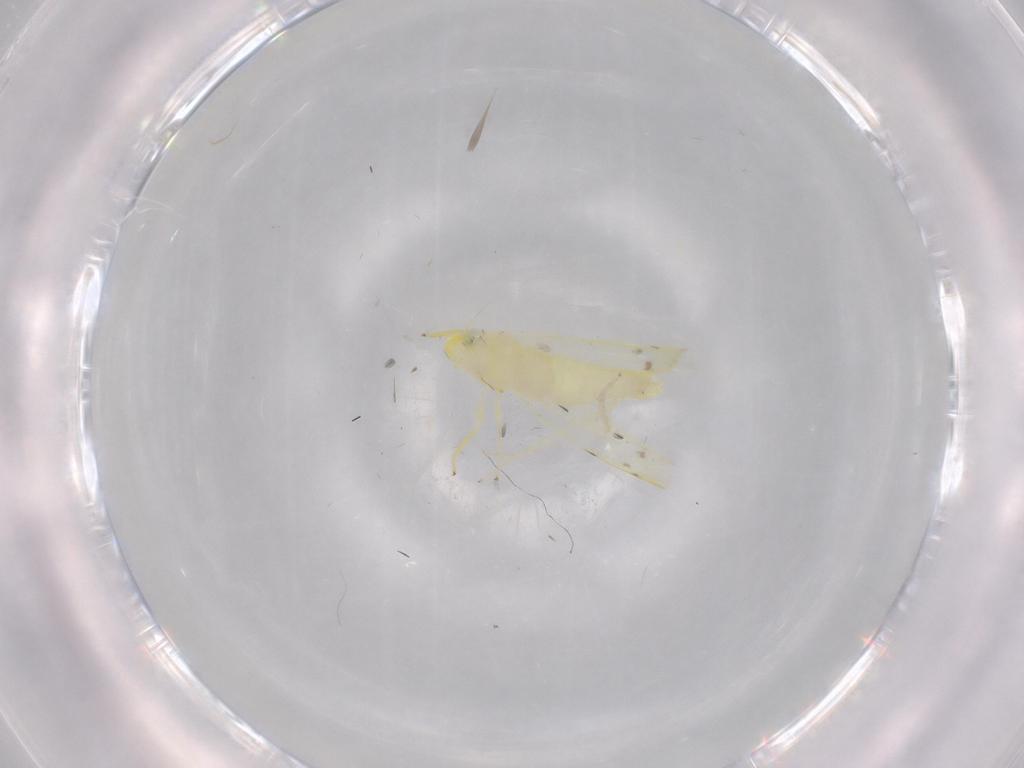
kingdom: Animalia
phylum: Arthropoda
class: Insecta
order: Hemiptera
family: Cicadellidae
